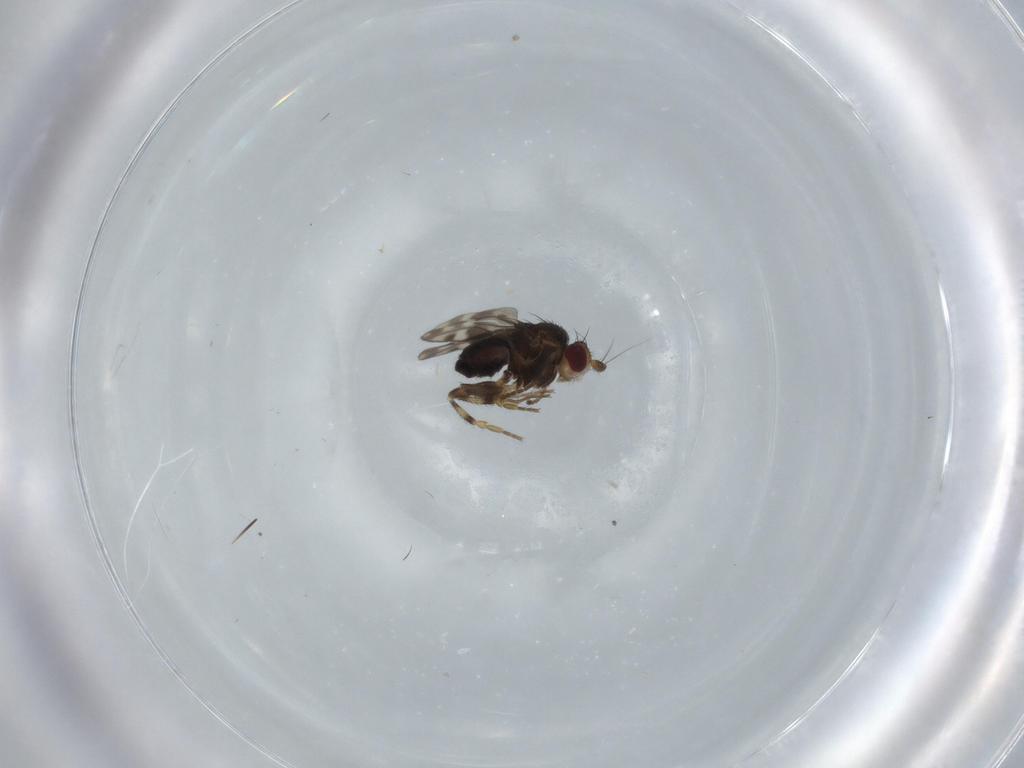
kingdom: Animalia
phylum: Arthropoda
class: Insecta
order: Diptera
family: Sphaeroceridae
